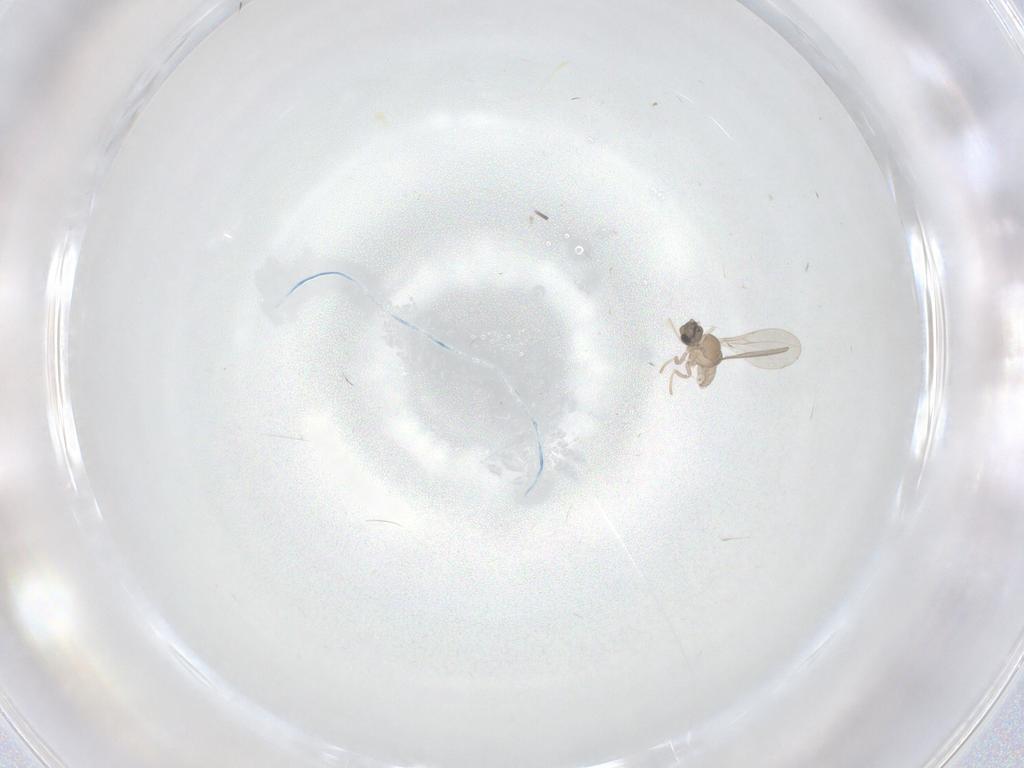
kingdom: Animalia
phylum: Arthropoda
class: Insecta
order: Diptera
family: Cecidomyiidae
